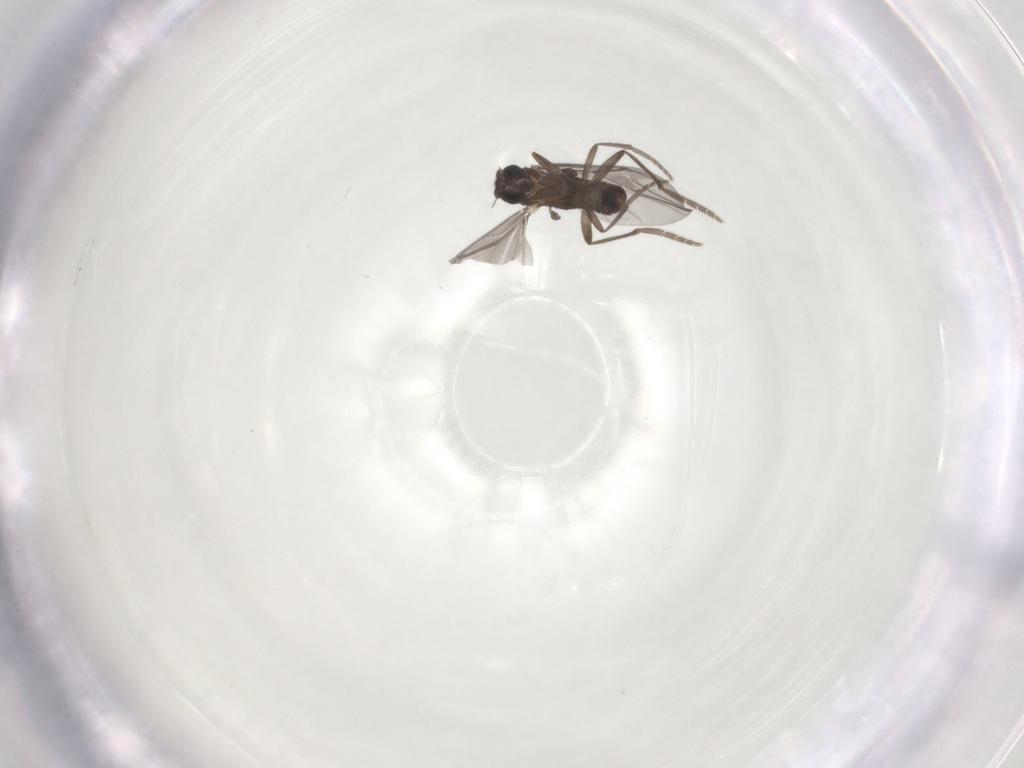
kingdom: Animalia
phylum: Arthropoda
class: Insecta
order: Diptera
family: Phoridae
